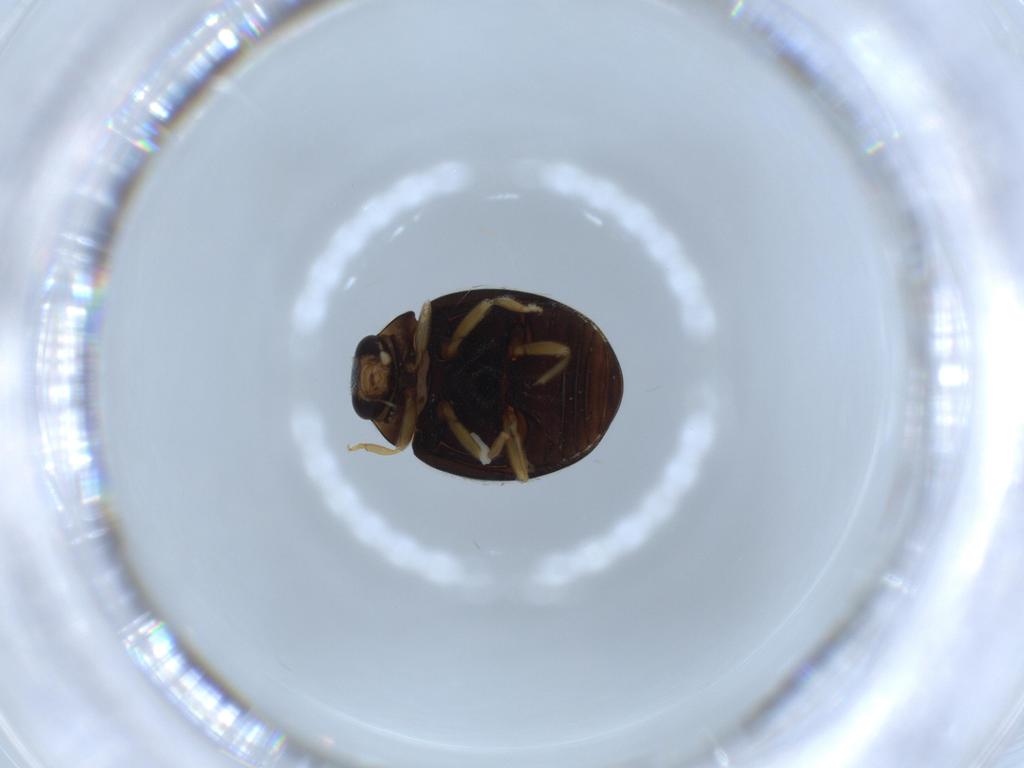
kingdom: Animalia
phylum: Arthropoda
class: Insecta
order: Coleoptera
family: Coccinellidae
